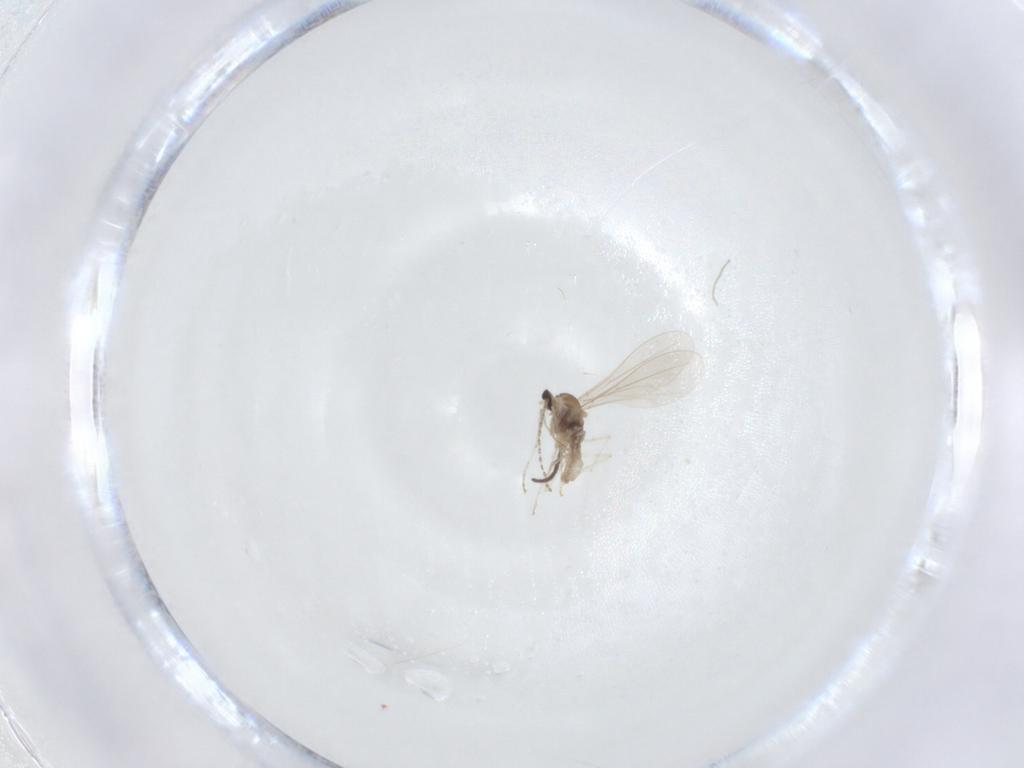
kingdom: Animalia
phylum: Arthropoda
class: Insecta
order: Diptera
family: Cecidomyiidae
